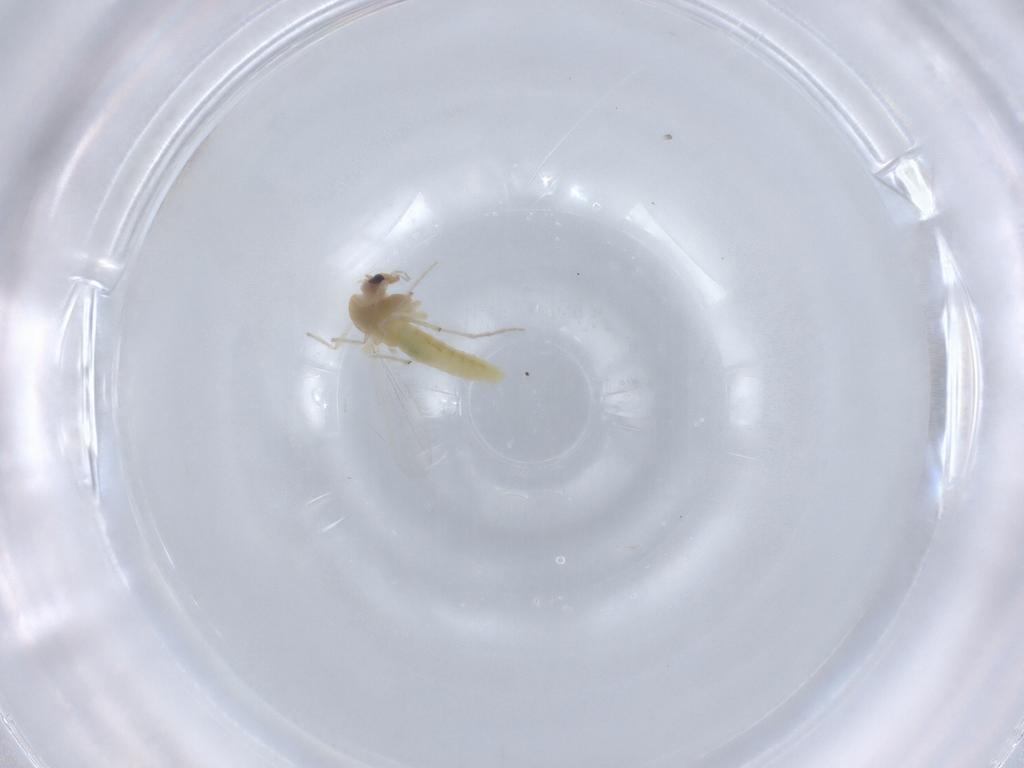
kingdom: Animalia
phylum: Arthropoda
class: Insecta
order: Diptera
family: Chironomidae
